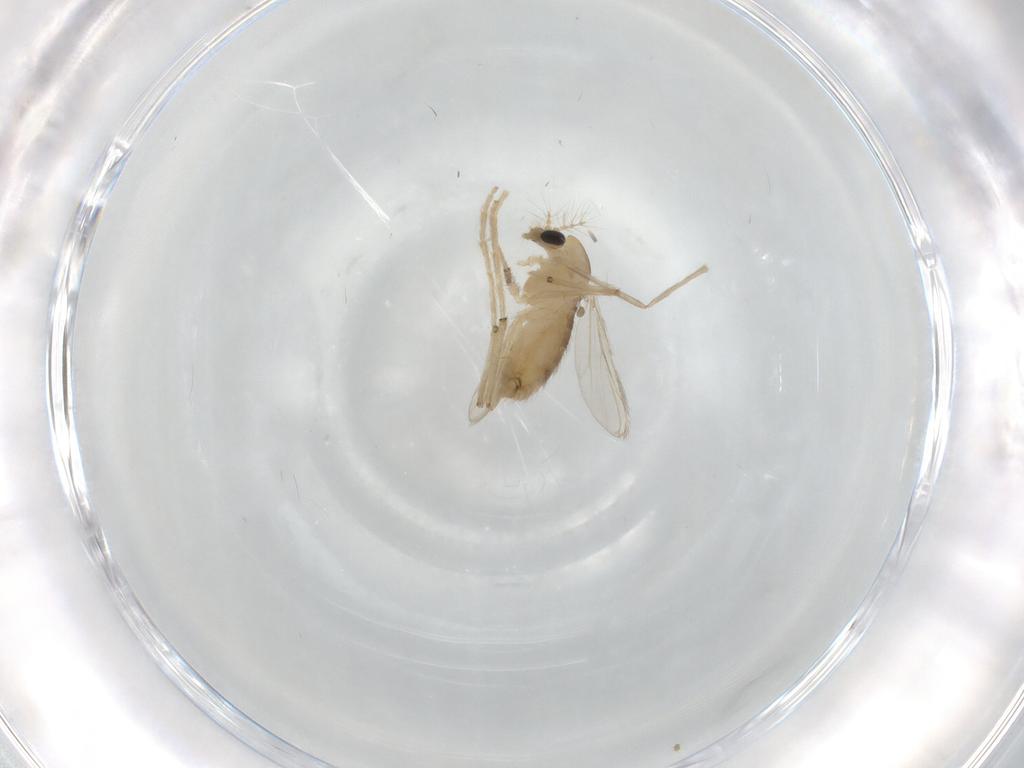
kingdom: Animalia
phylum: Arthropoda
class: Insecta
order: Diptera
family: Chironomidae
